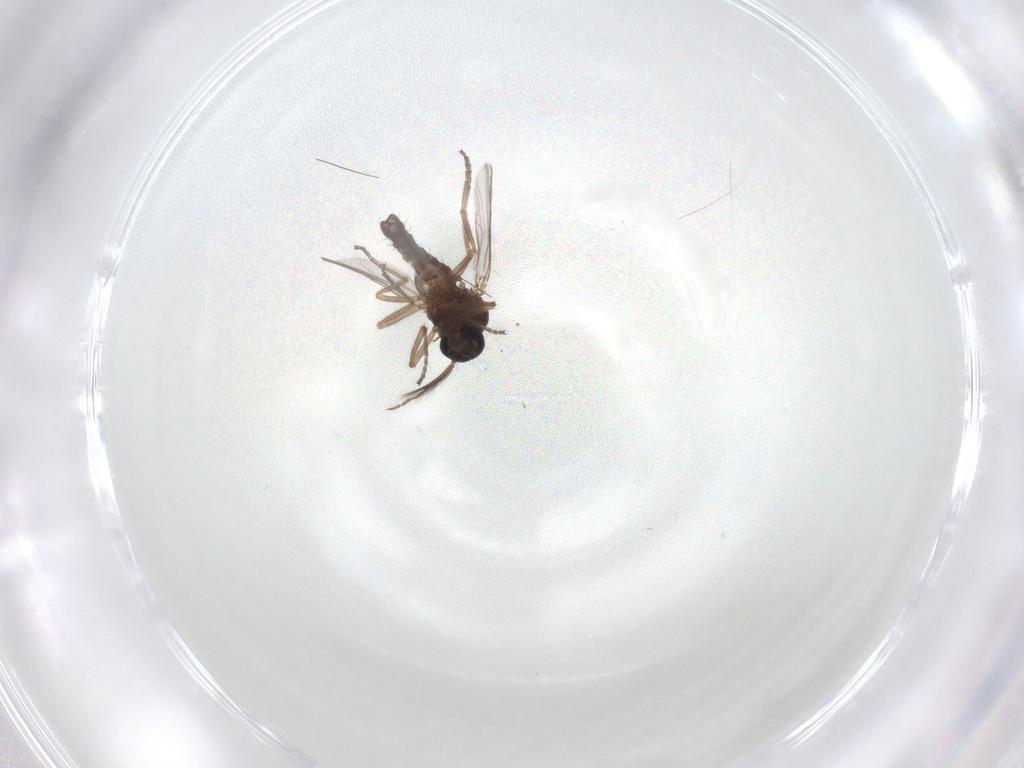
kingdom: Animalia
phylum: Arthropoda
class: Insecta
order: Diptera
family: Ceratopogonidae
